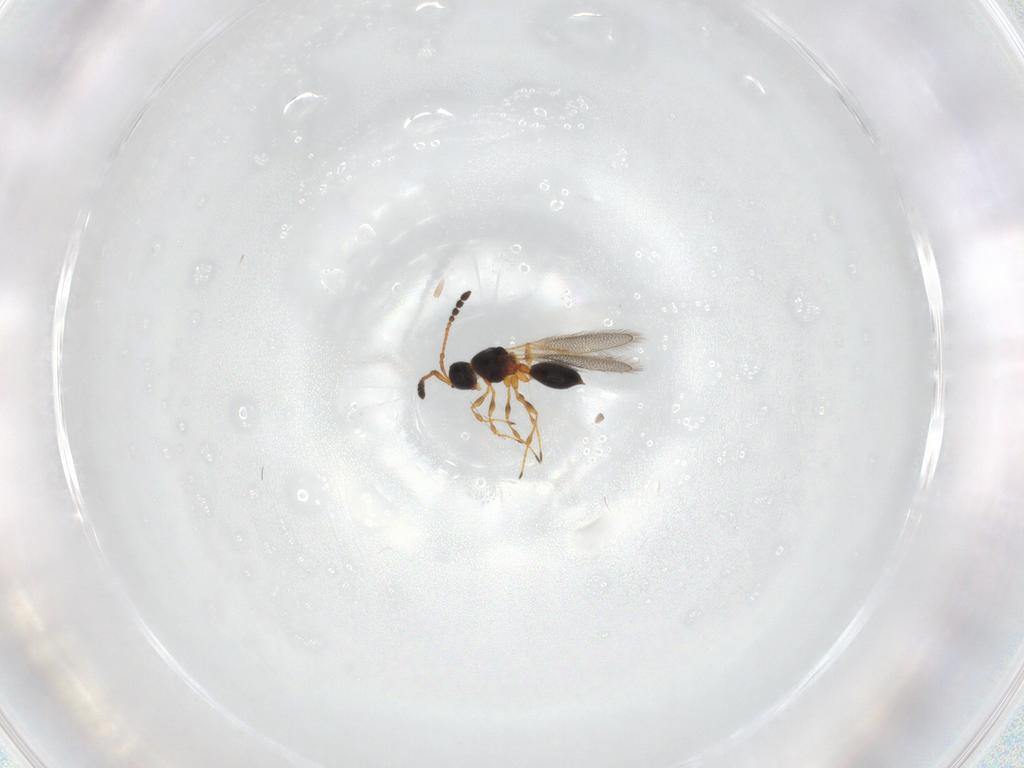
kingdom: Animalia
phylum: Arthropoda
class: Insecta
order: Hymenoptera
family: Diapriidae
